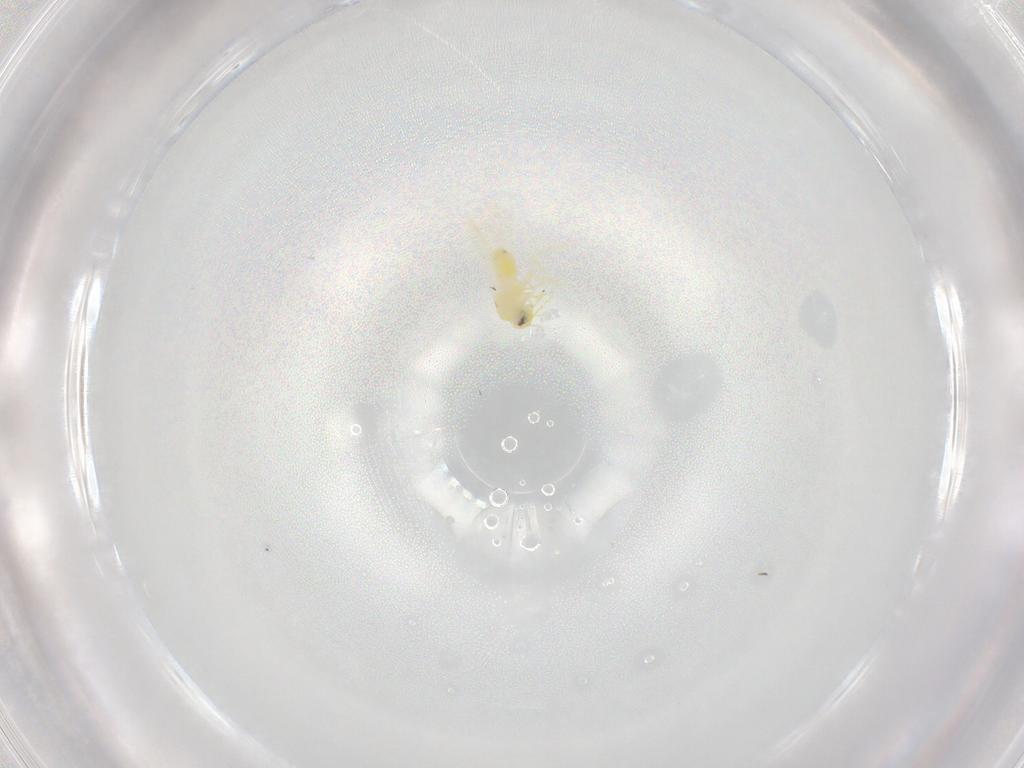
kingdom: Animalia
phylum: Arthropoda
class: Insecta
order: Hemiptera
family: Aleyrodidae
